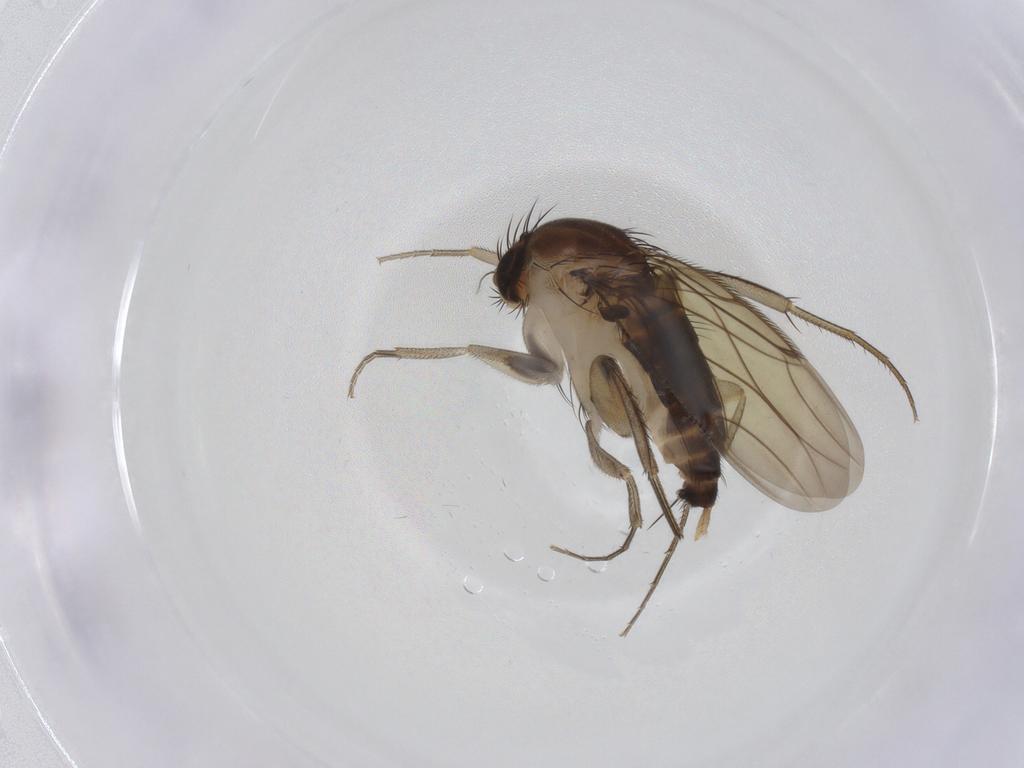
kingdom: Animalia
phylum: Arthropoda
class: Insecta
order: Diptera
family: Phoridae
